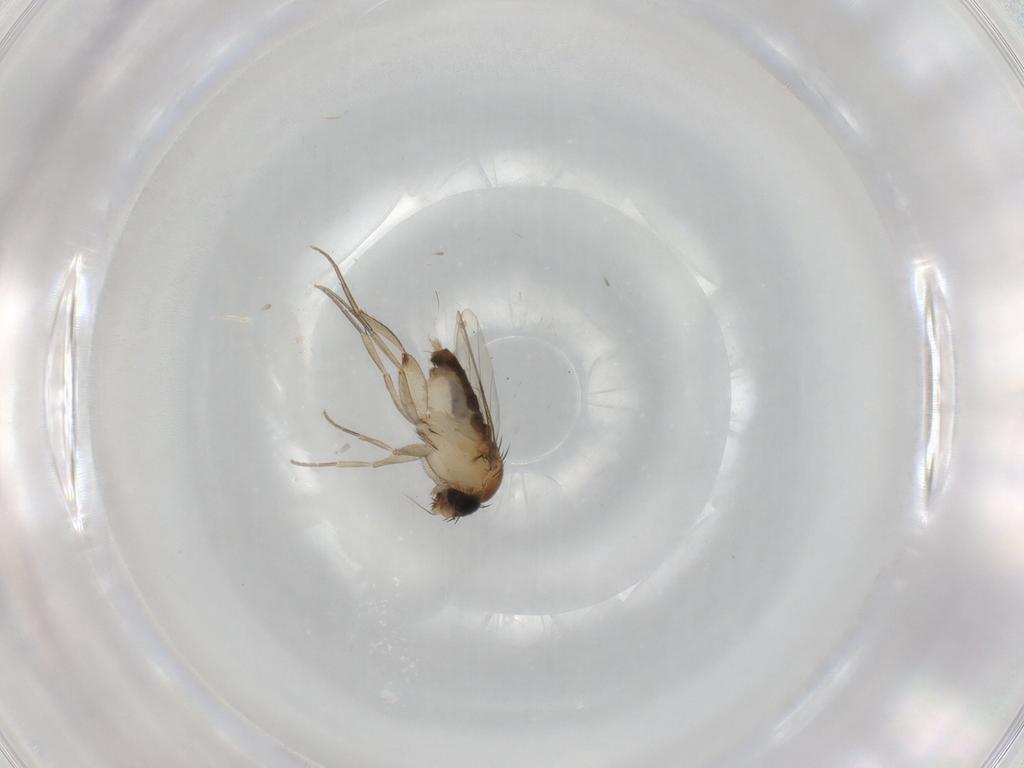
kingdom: Animalia
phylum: Arthropoda
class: Insecta
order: Diptera
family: Phoridae
